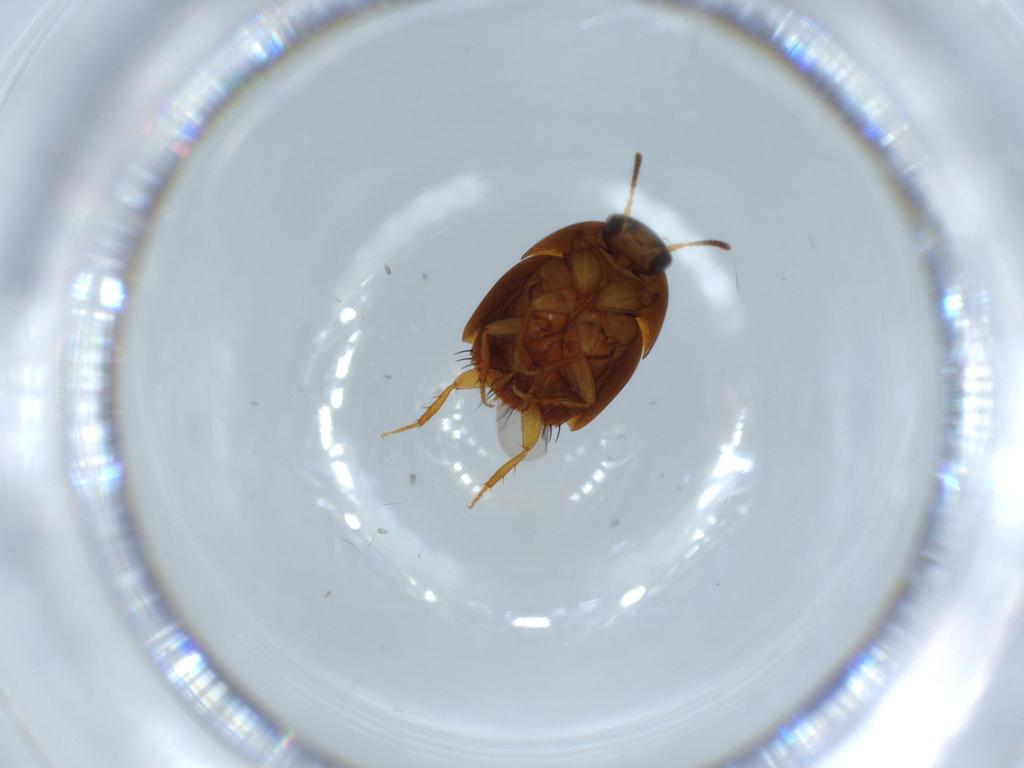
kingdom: Animalia
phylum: Arthropoda
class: Insecta
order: Coleoptera
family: Cleridae
